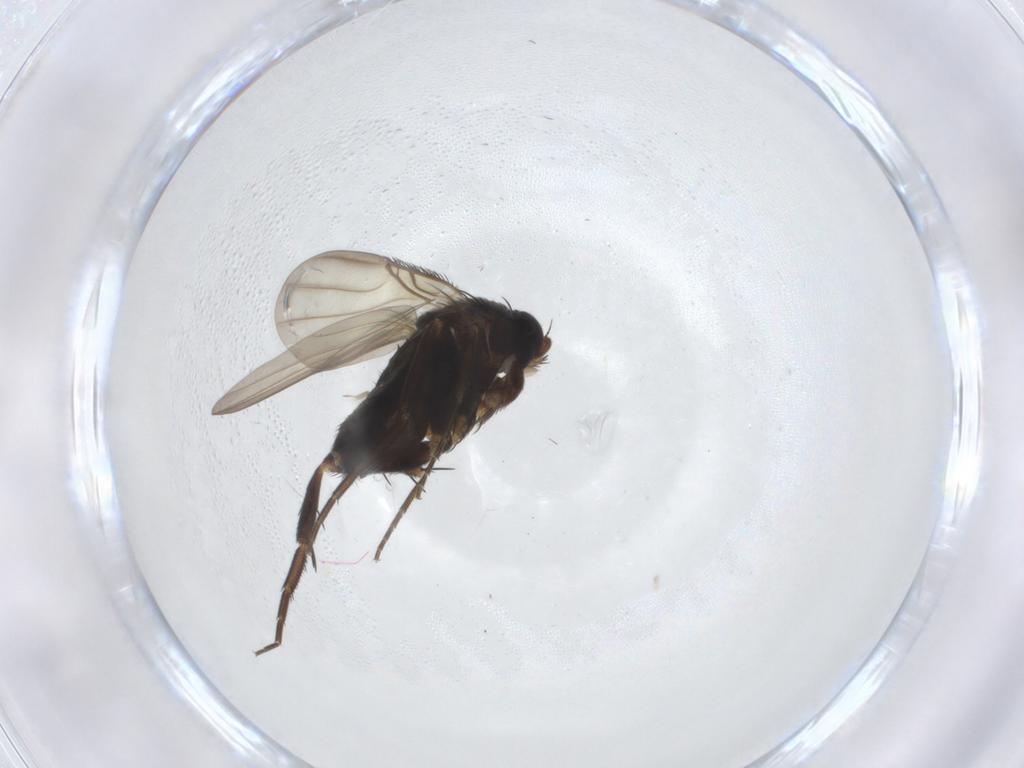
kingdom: Animalia
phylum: Arthropoda
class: Insecta
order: Diptera
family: Phoridae
